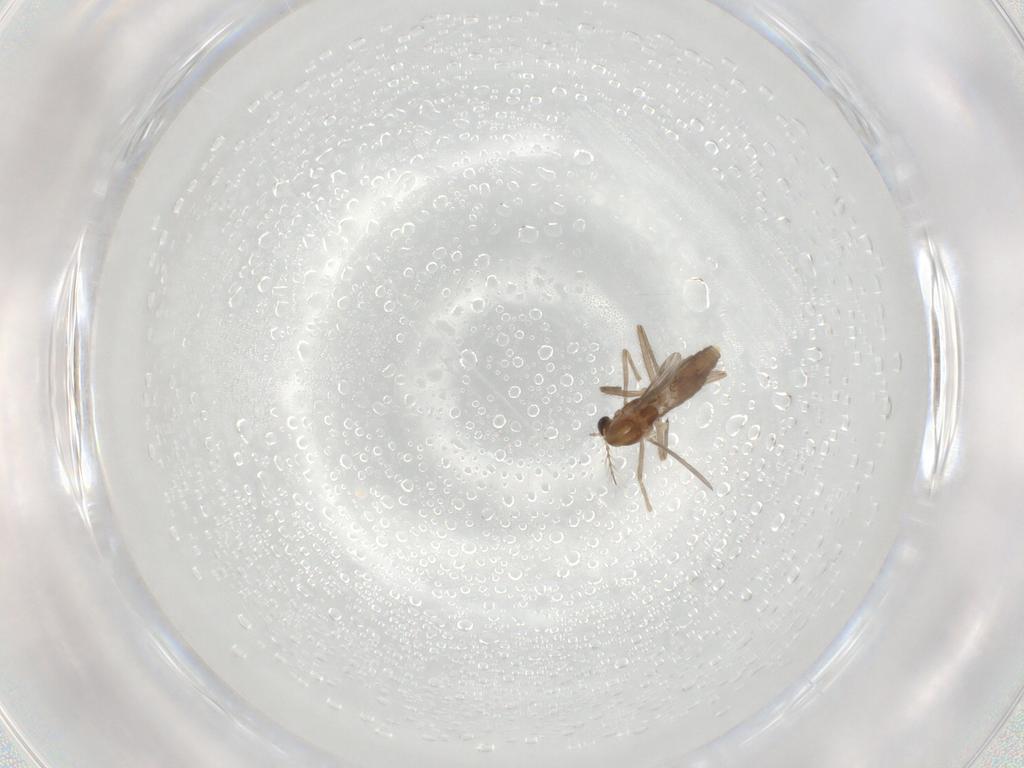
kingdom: Animalia
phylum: Arthropoda
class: Insecta
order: Diptera
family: Chironomidae
